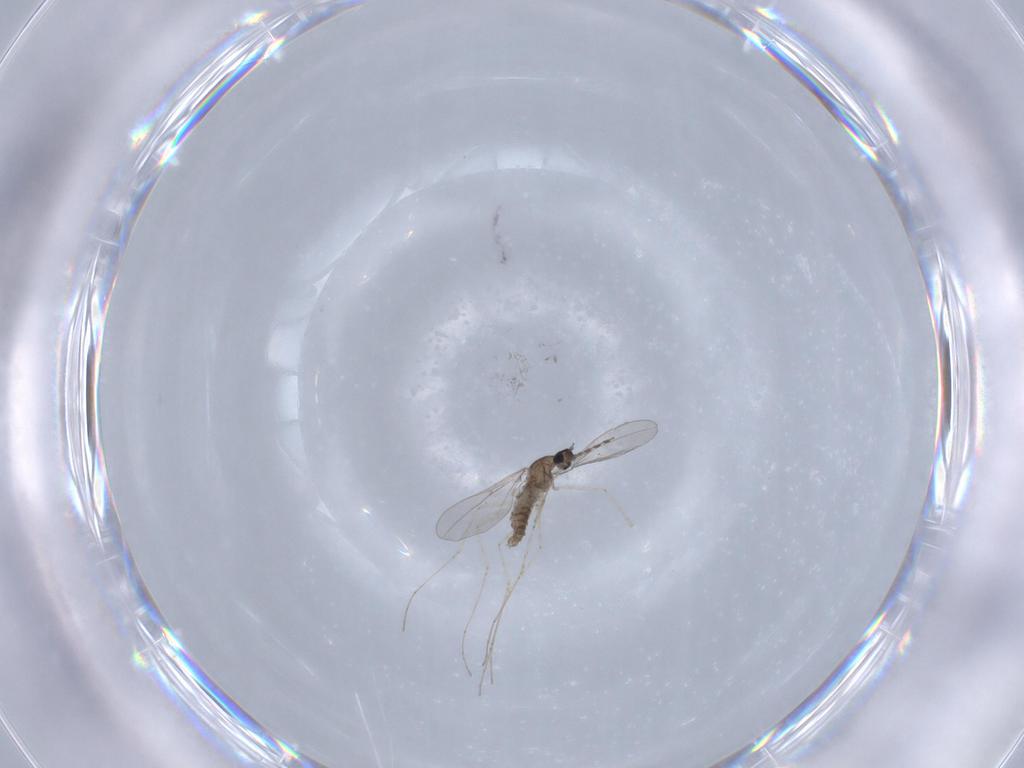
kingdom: Animalia
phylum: Arthropoda
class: Insecta
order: Diptera
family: Cecidomyiidae
